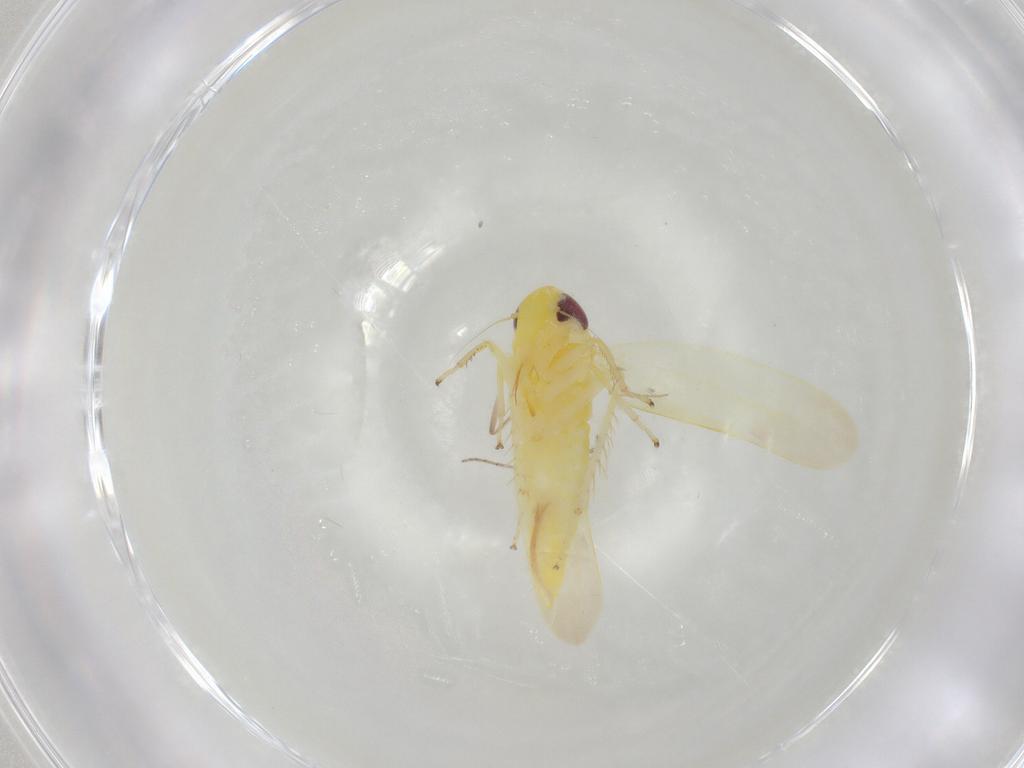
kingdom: Animalia
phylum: Arthropoda
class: Insecta
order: Hemiptera
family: Cicadellidae
